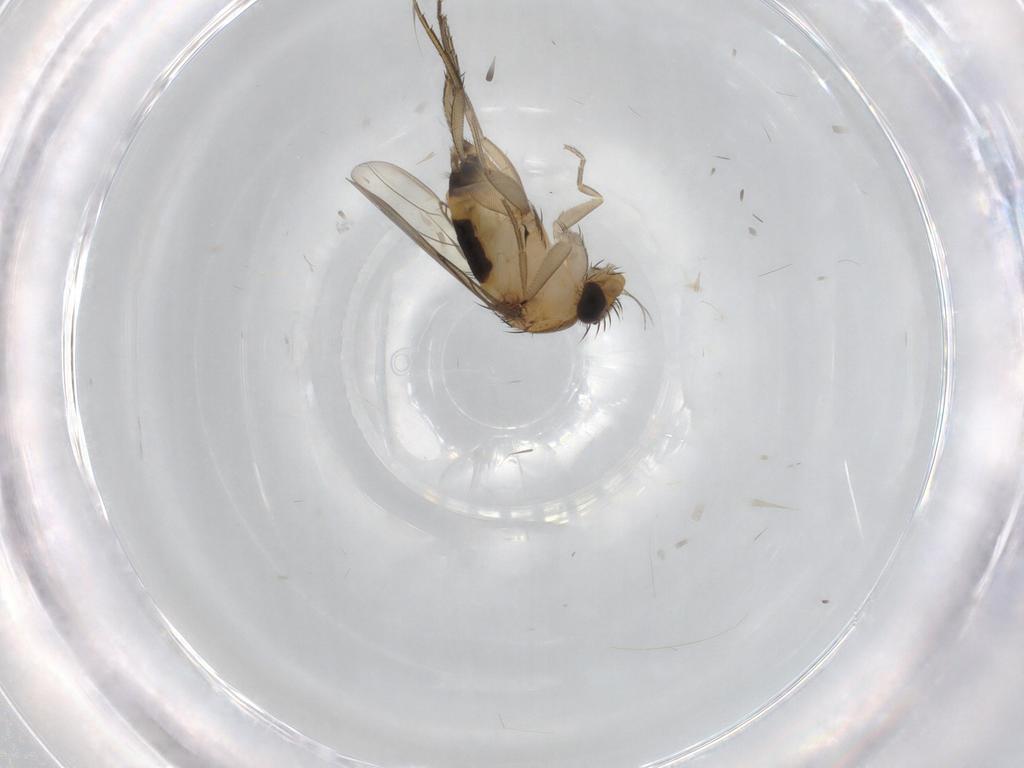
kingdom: Animalia
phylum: Arthropoda
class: Insecta
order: Diptera
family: Phoridae
